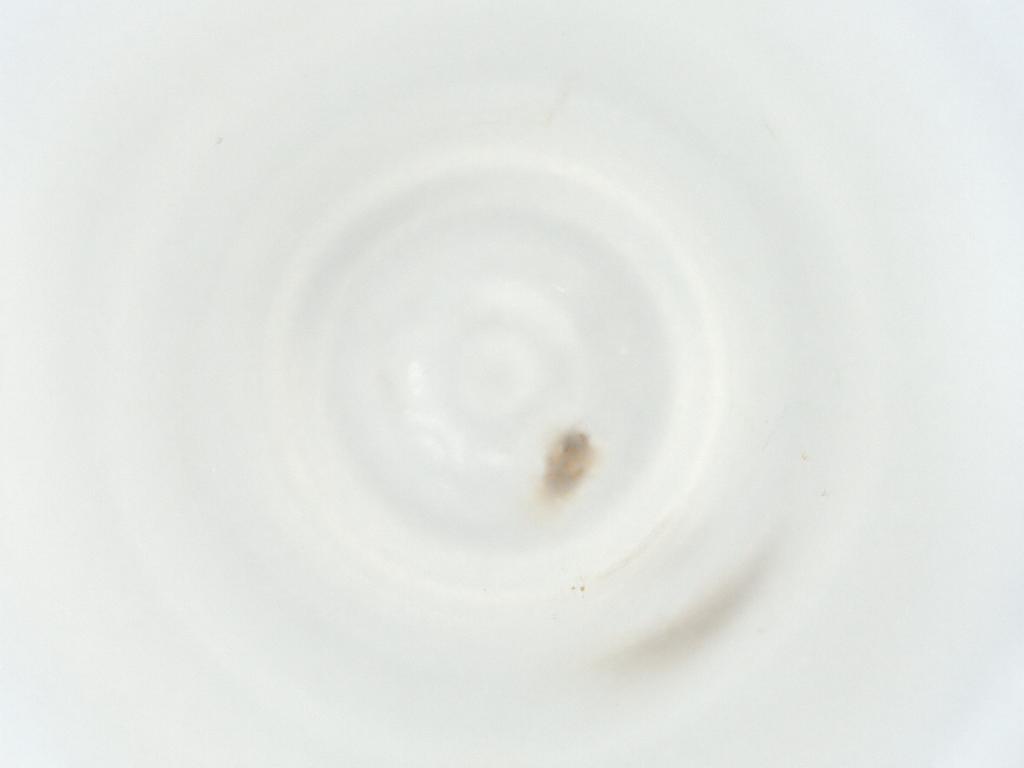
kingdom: Animalia
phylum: Arthropoda
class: Insecta
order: Diptera
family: Cecidomyiidae
